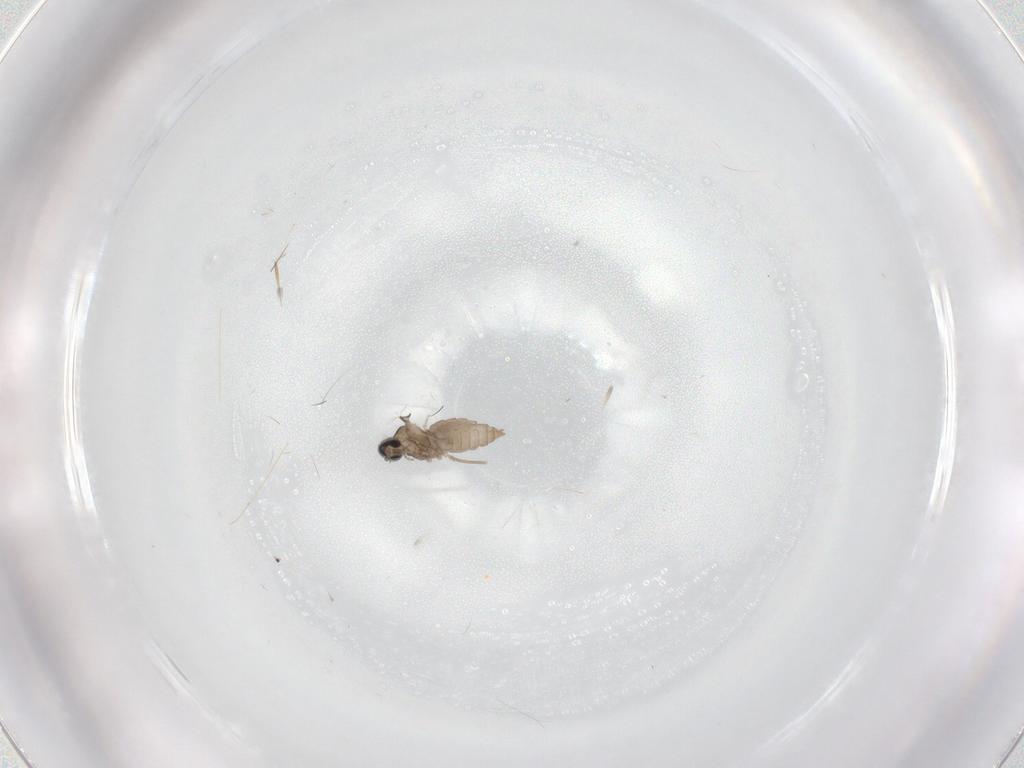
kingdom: Animalia
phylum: Arthropoda
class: Insecta
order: Diptera
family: Cecidomyiidae
